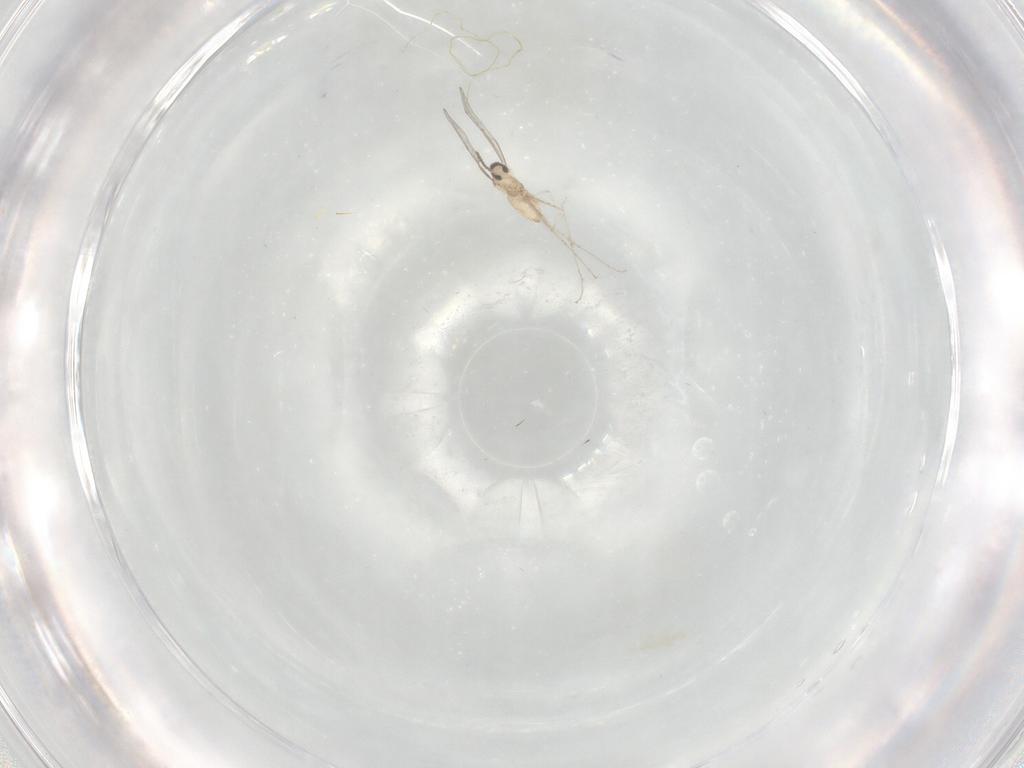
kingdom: Animalia
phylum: Arthropoda
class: Insecta
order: Diptera
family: Cecidomyiidae
